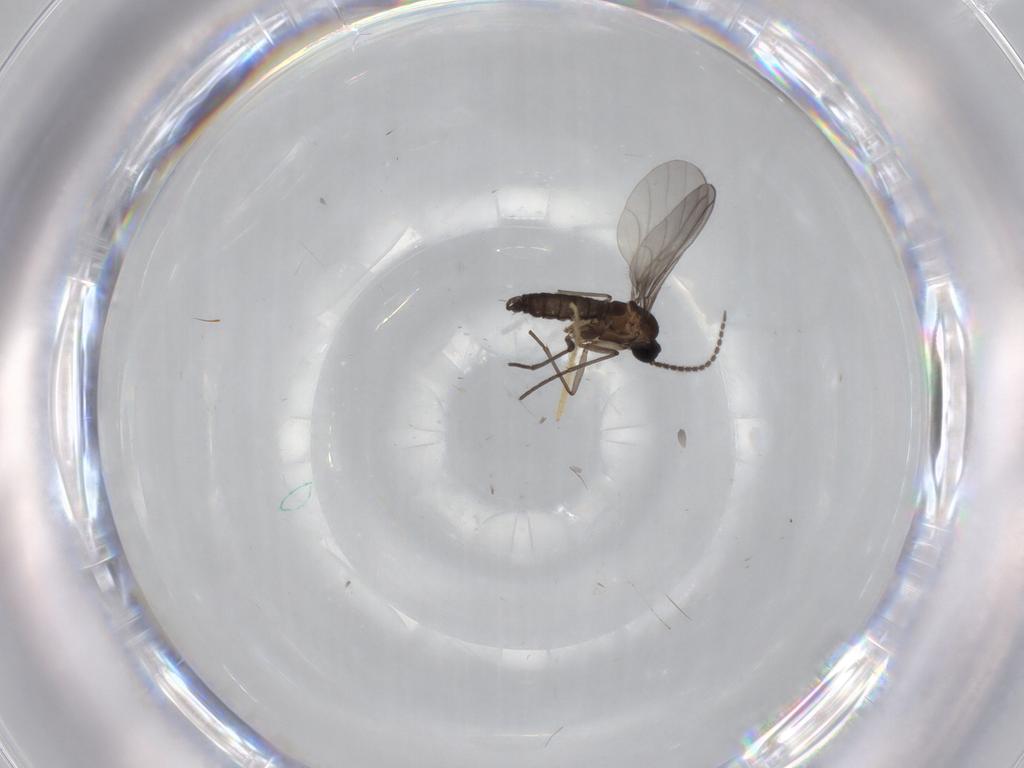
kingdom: Animalia
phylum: Arthropoda
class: Insecta
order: Diptera
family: Sciaridae
